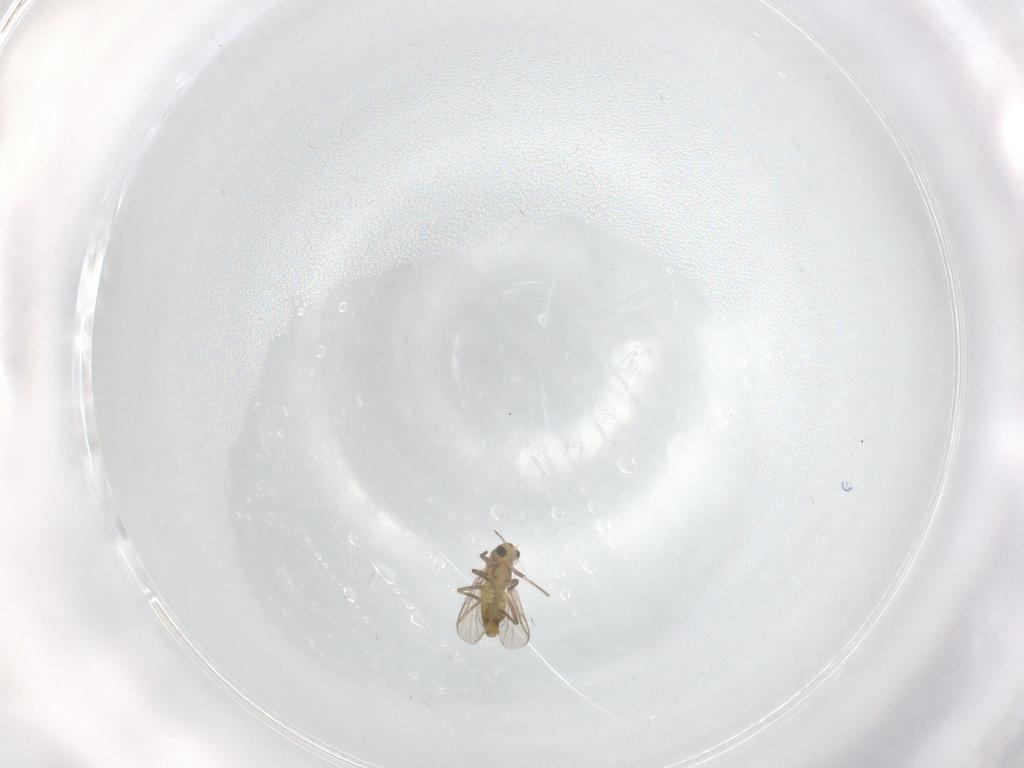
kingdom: Animalia
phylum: Arthropoda
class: Insecta
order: Diptera
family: Chironomidae
